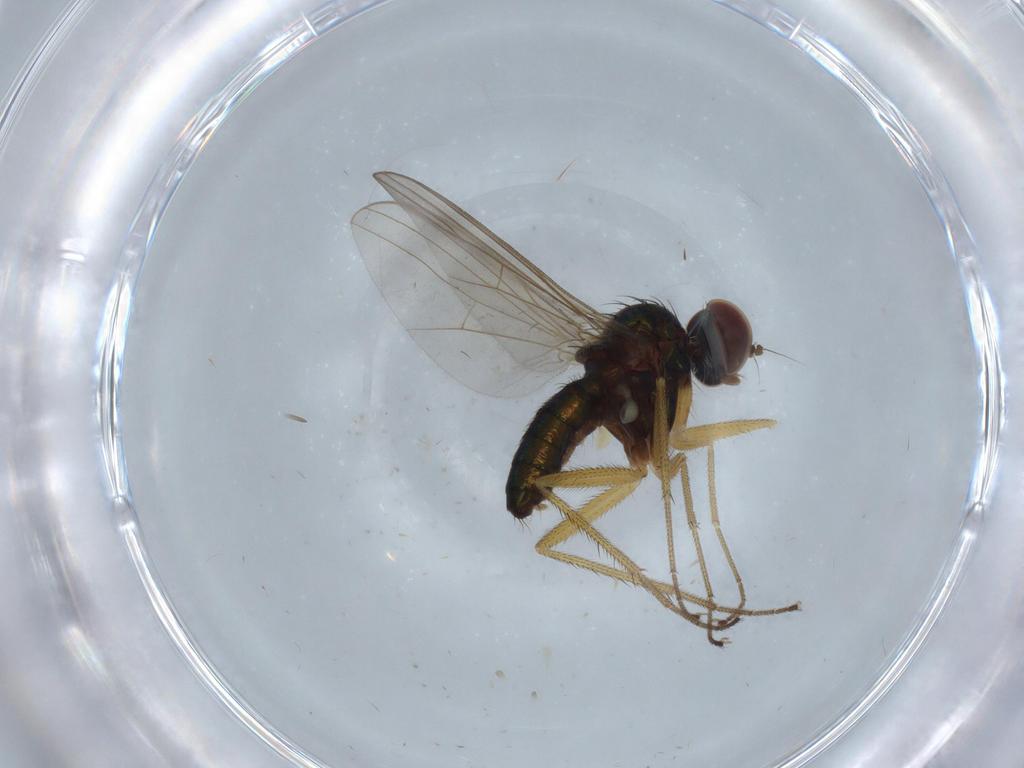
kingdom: Animalia
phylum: Arthropoda
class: Insecta
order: Diptera
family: Dolichopodidae
